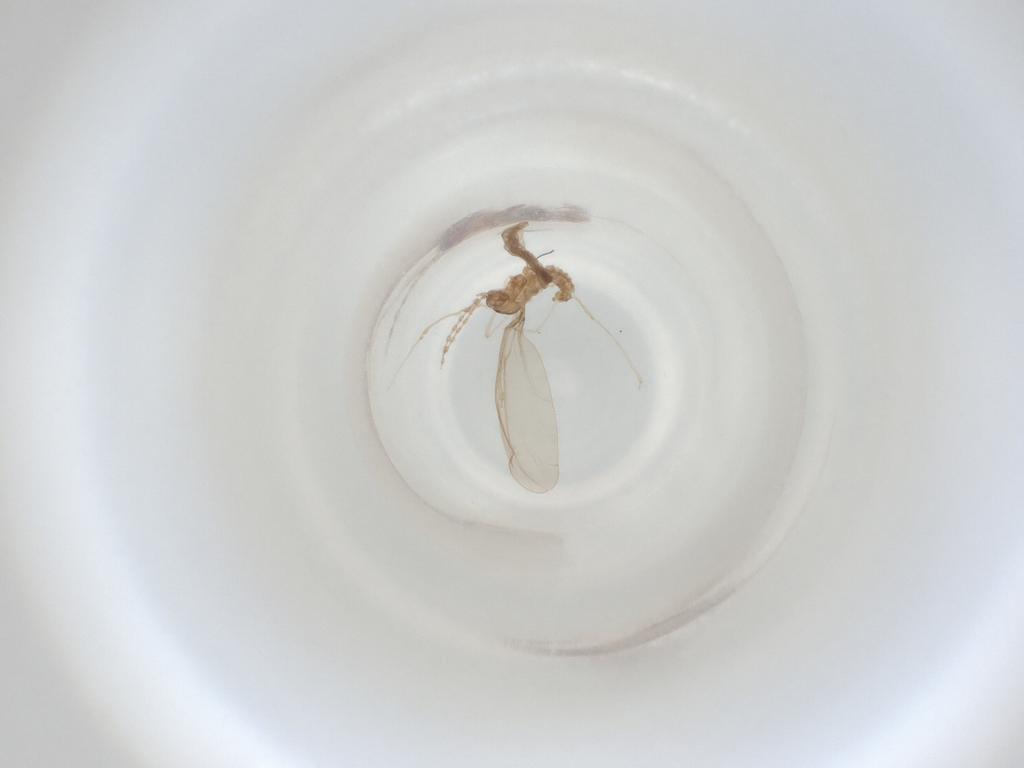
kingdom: Animalia
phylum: Arthropoda
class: Insecta
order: Diptera
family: Cecidomyiidae
